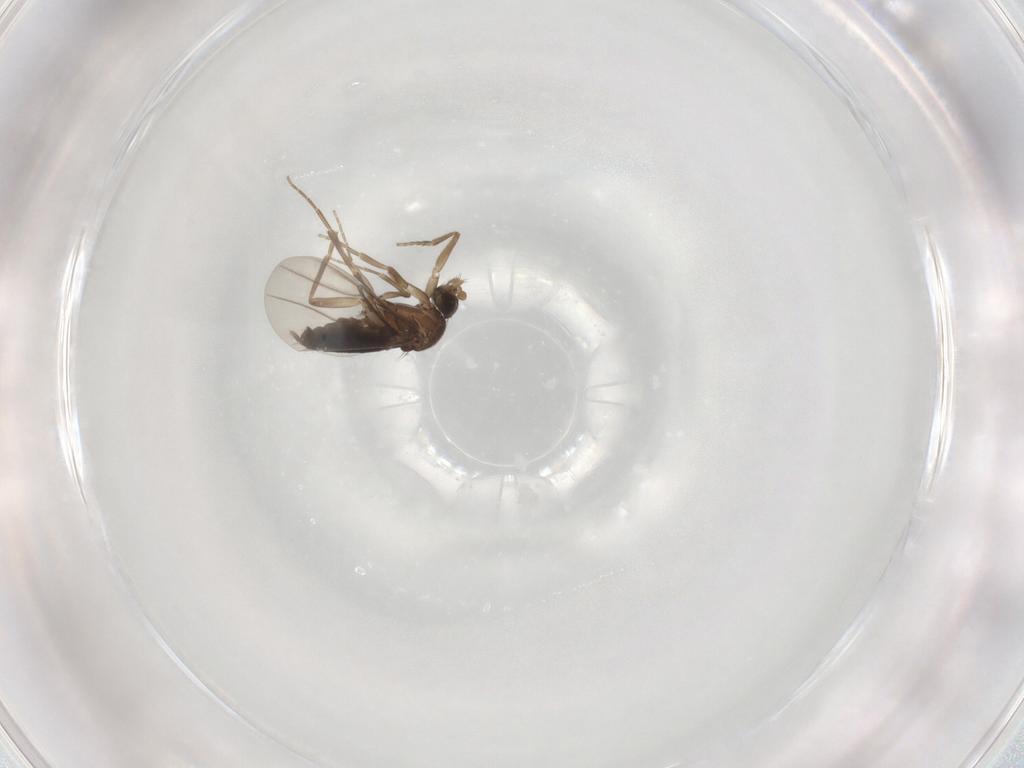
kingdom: Animalia
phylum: Arthropoda
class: Insecta
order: Diptera
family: Phoridae
